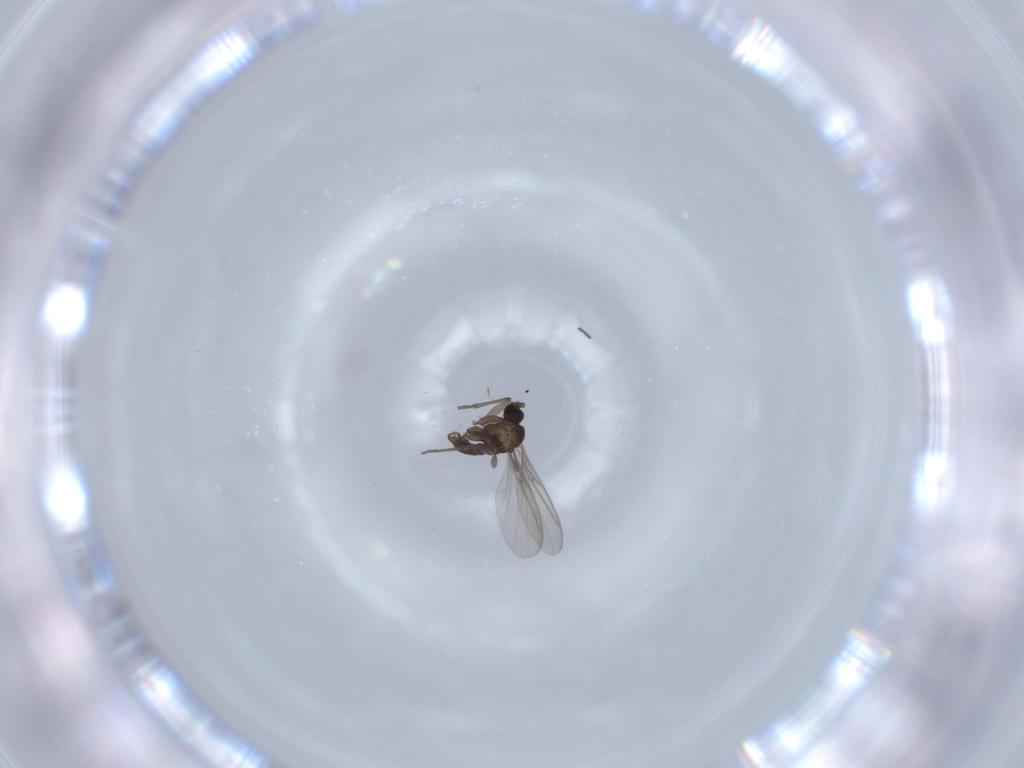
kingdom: Animalia
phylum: Arthropoda
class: Insecta
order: Diptera
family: Sciaridae
